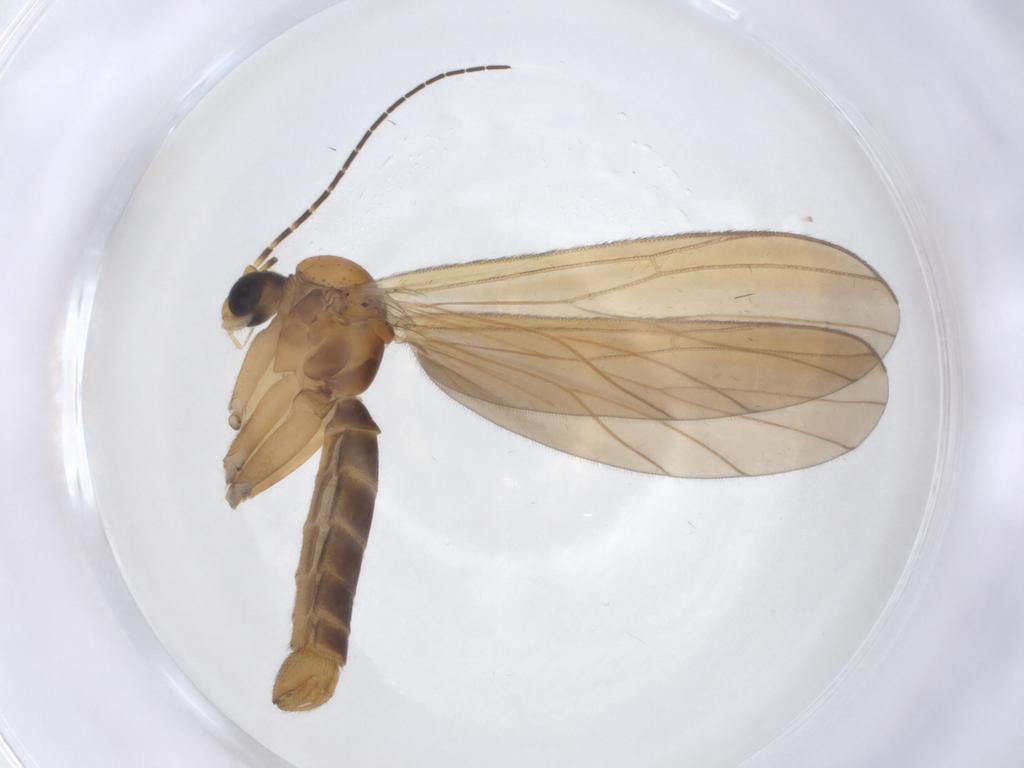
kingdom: Animalia
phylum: Arthropoda
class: Insecta
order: Diptera
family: Mycetophilidae
